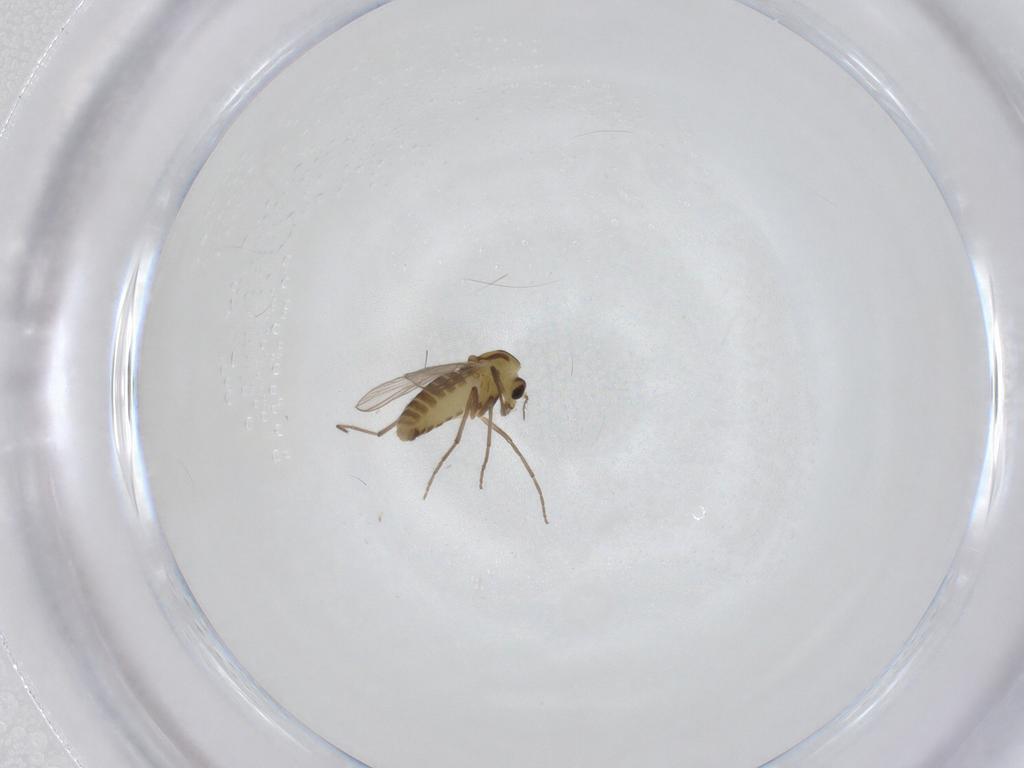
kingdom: Animalia
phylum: Arthropoda
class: Insecta
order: Diptera
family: Chironomidae
